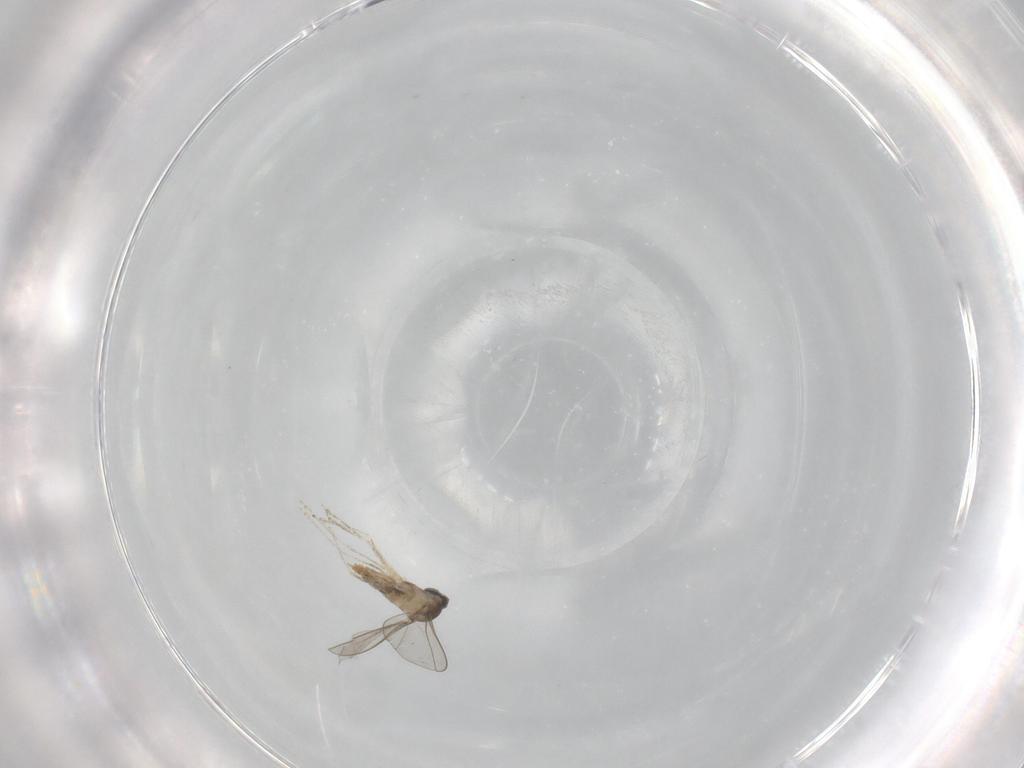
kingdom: Animalia
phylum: Arthropoda
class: Insecta
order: Diptera
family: Cecidomyiidae
